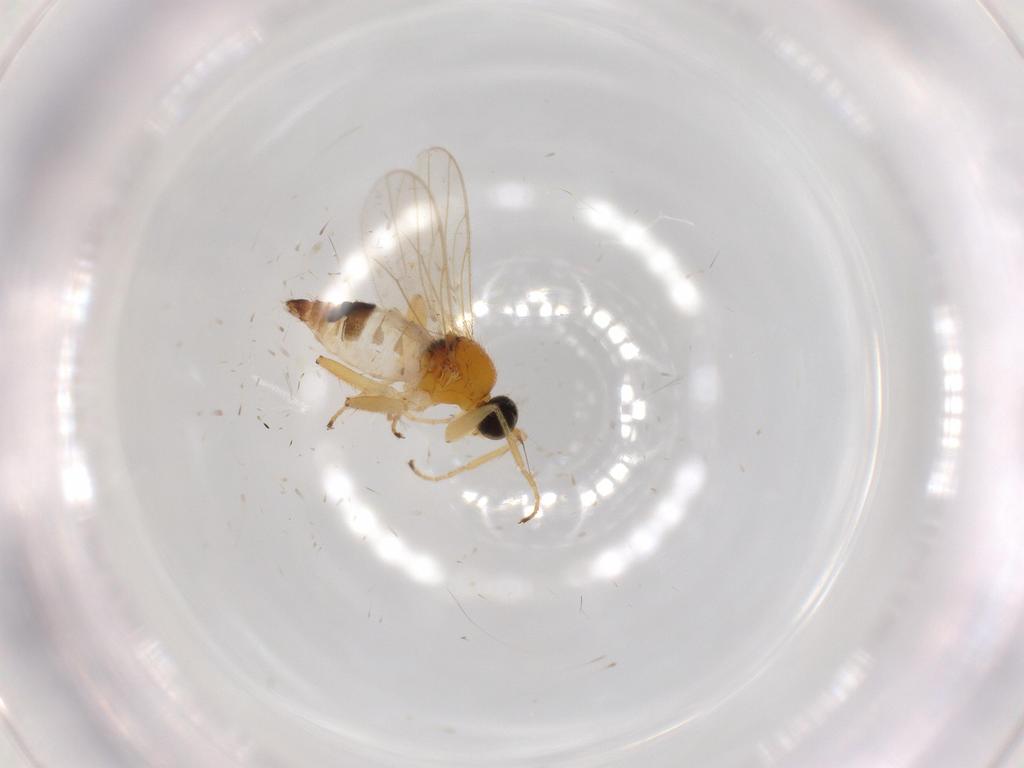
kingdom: Animalia
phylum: Arthropoda
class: Insecta
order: Diptera
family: Hybotidae
